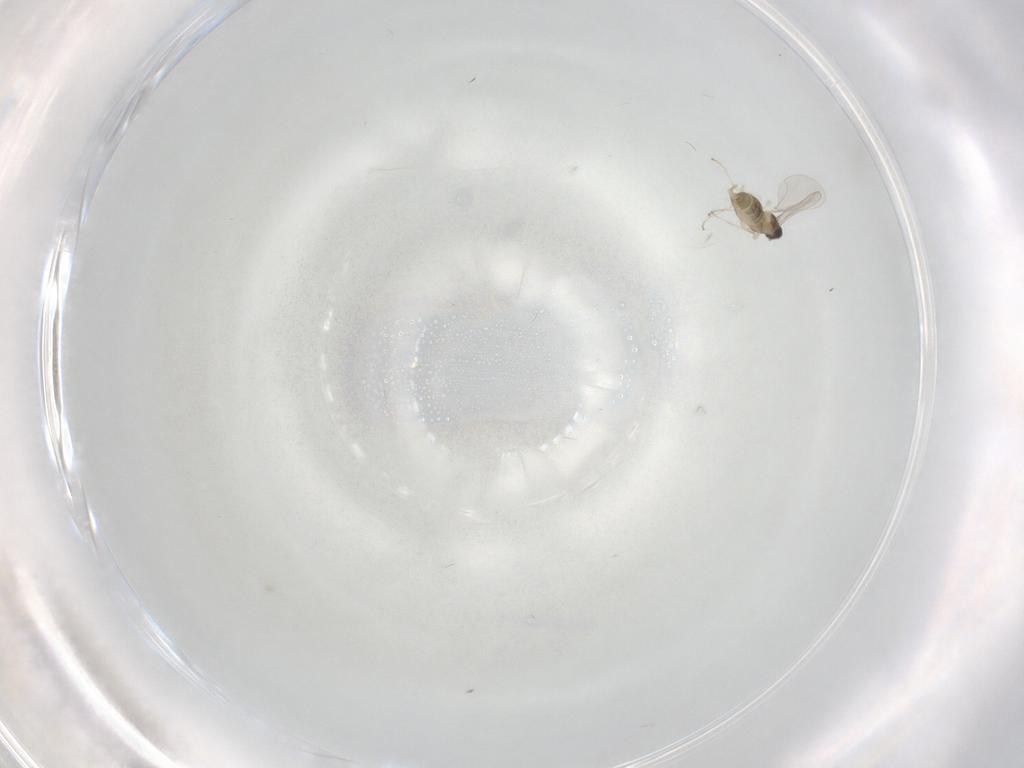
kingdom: Animalia
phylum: Arthropoda
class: Insecta
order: Diptera
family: Cecidomyiidae
